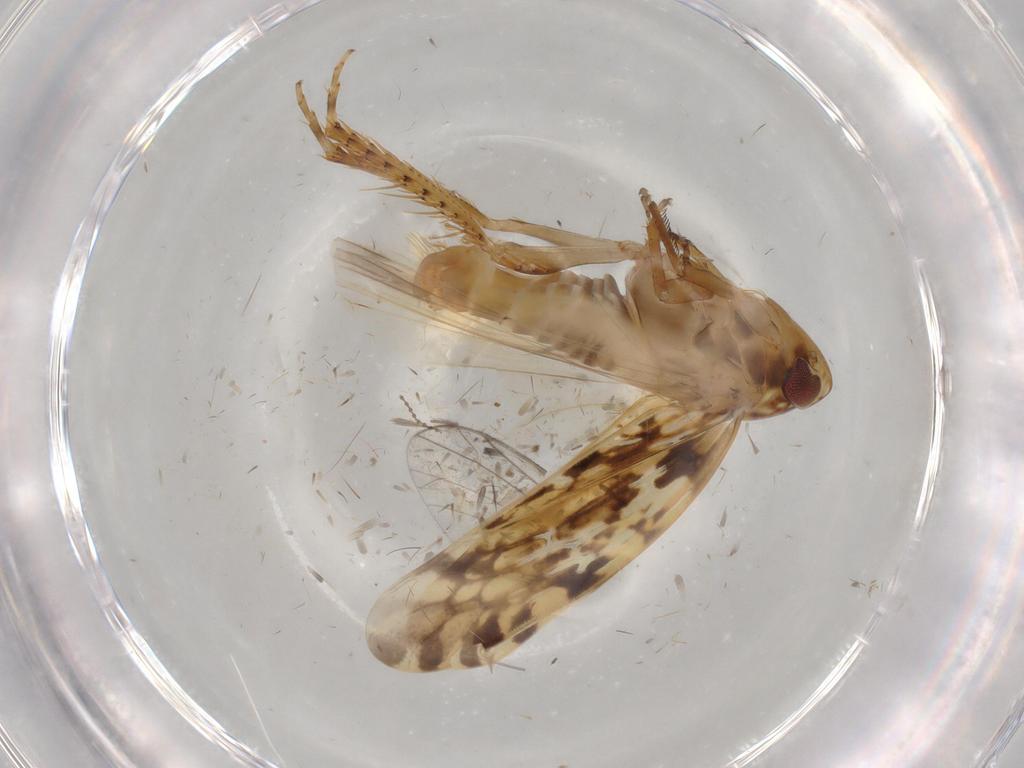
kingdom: Animalia
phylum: Arthropoda
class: Insecta
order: Hemiptera
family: Cicadellidae
